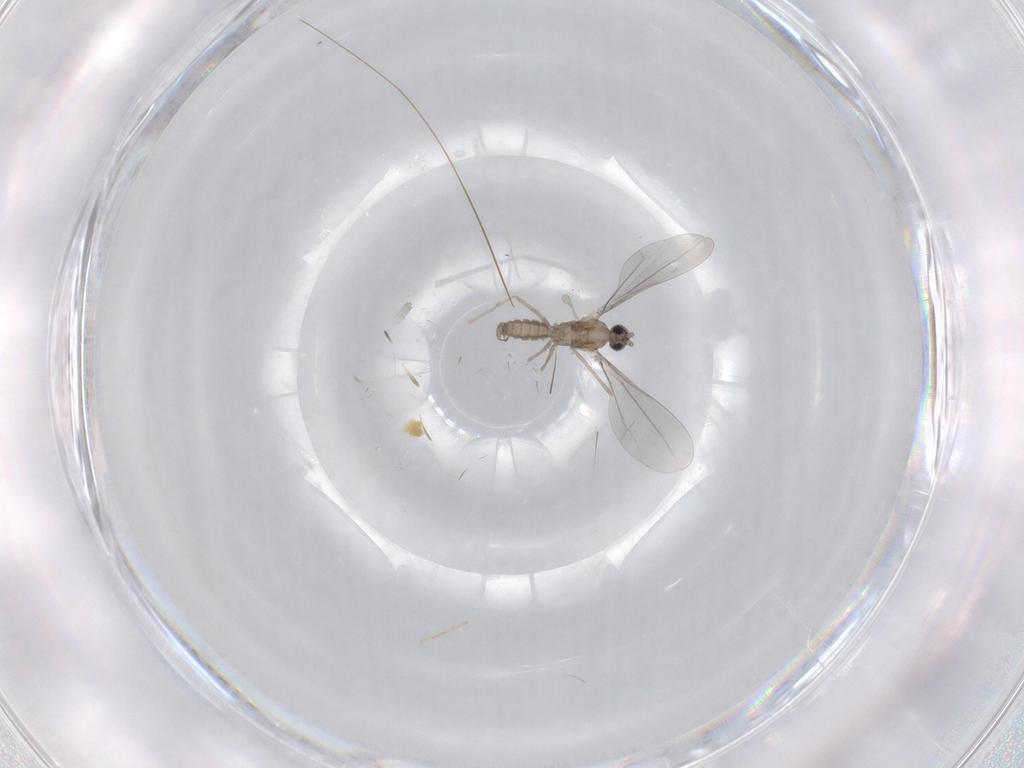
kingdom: Animalia
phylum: Arthropoda
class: Insecta
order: Diptera
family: Cecidomyiidae
